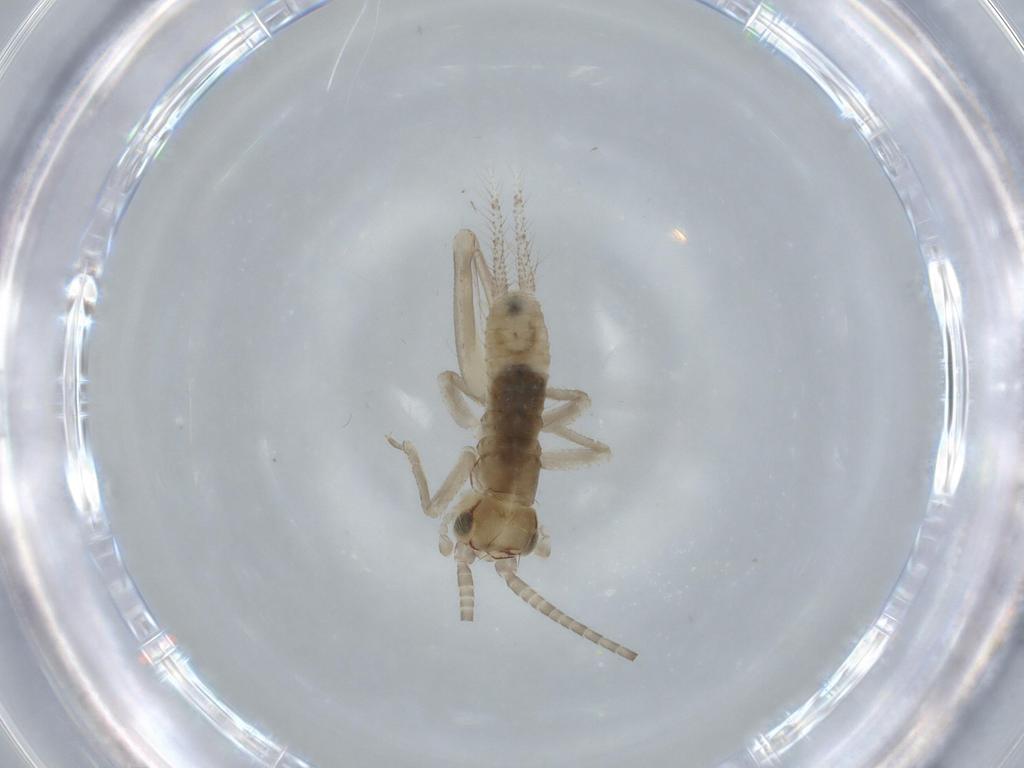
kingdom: Animalia
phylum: Arthropoda
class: Insecta
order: Orthoptera
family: Gryllidae
